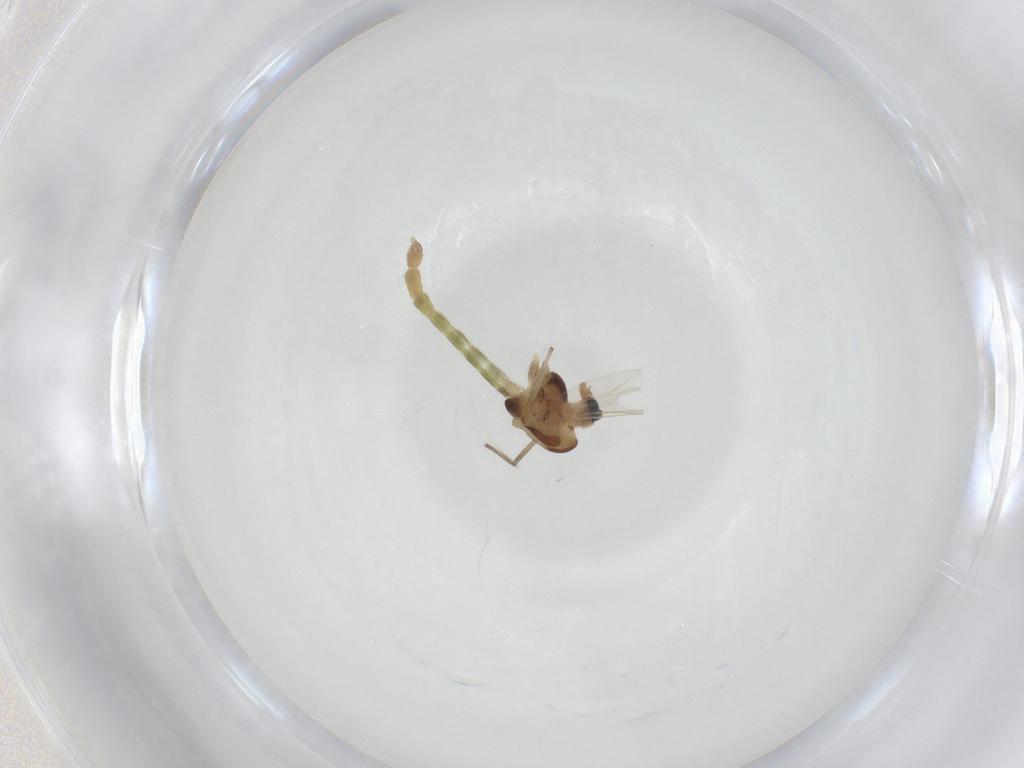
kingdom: Animalia
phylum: Arthropoda
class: Insecta
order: Diptera
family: Chironomidae
